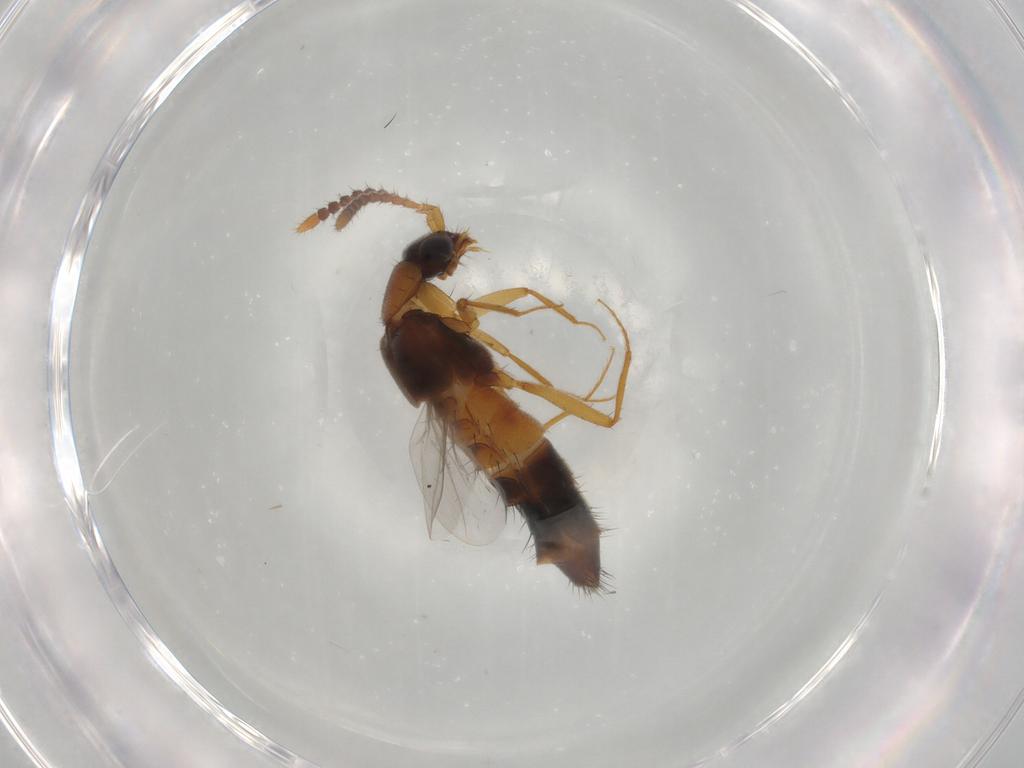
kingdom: Animalia
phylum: Arthropoda
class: Insecta
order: Coleoptera
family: Staphylinidae
